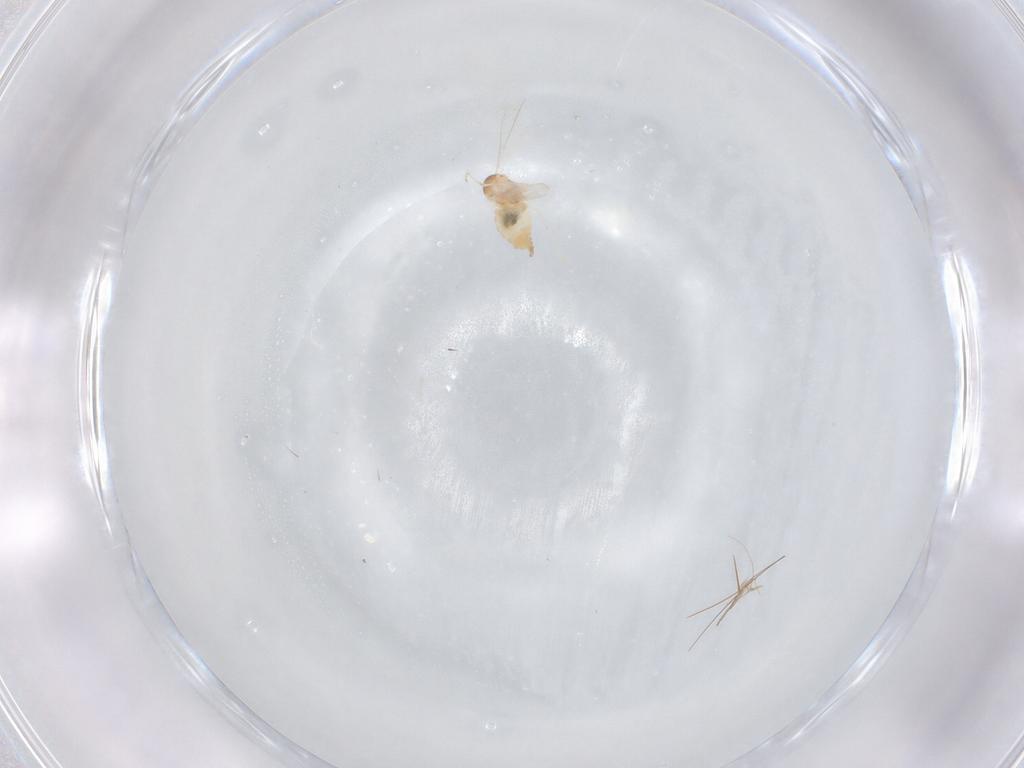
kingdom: Animalia
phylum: Arthropoda
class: Insecta
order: Diptera
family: Cecidomyiidae
